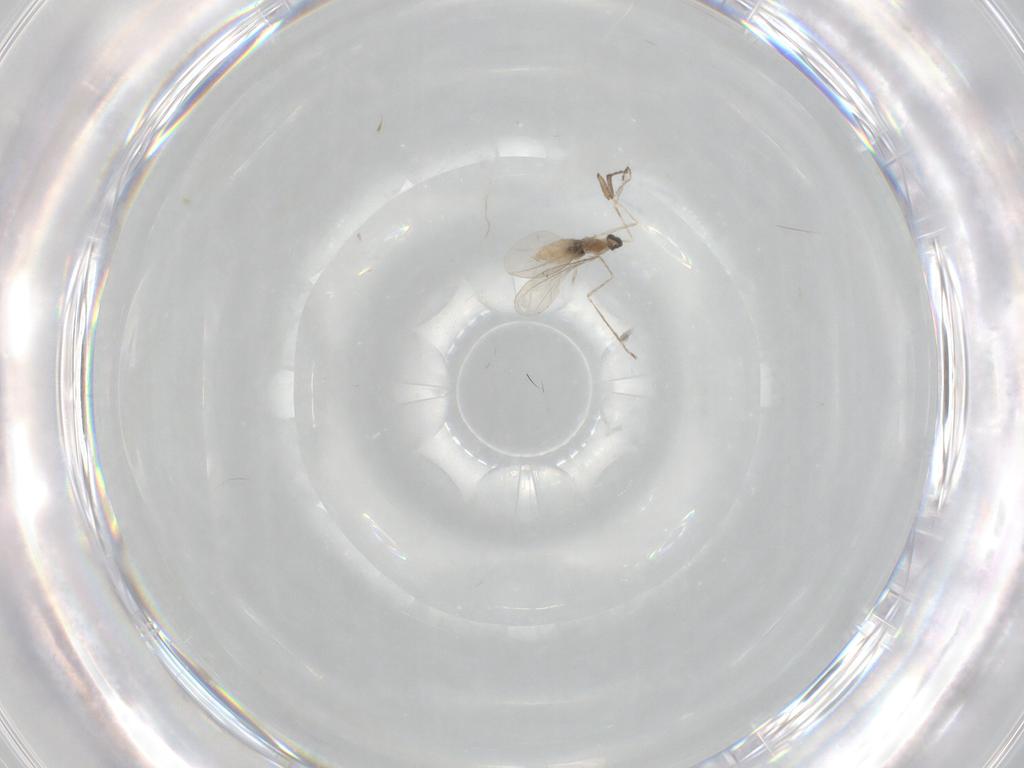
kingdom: Animalia
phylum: Arthropoda
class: Insecta
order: Diptera
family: Cecidomyiidae
